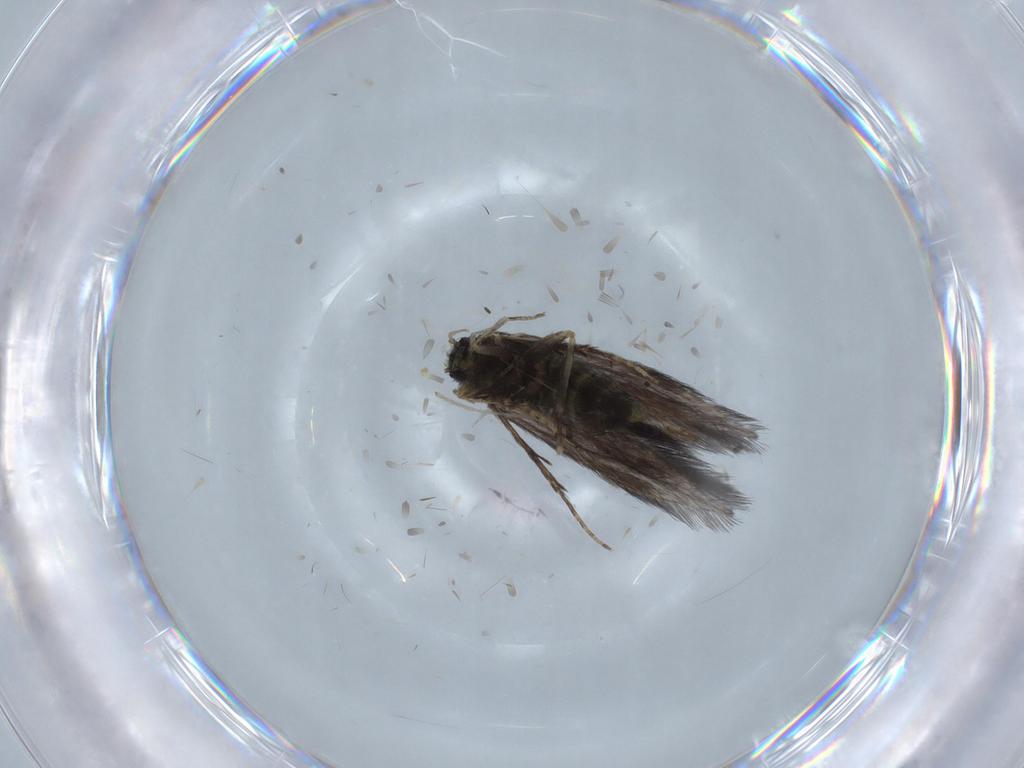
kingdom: Animalia
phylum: Arthropoda
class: Insecta
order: Trichoptera
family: Hydroptilidae
